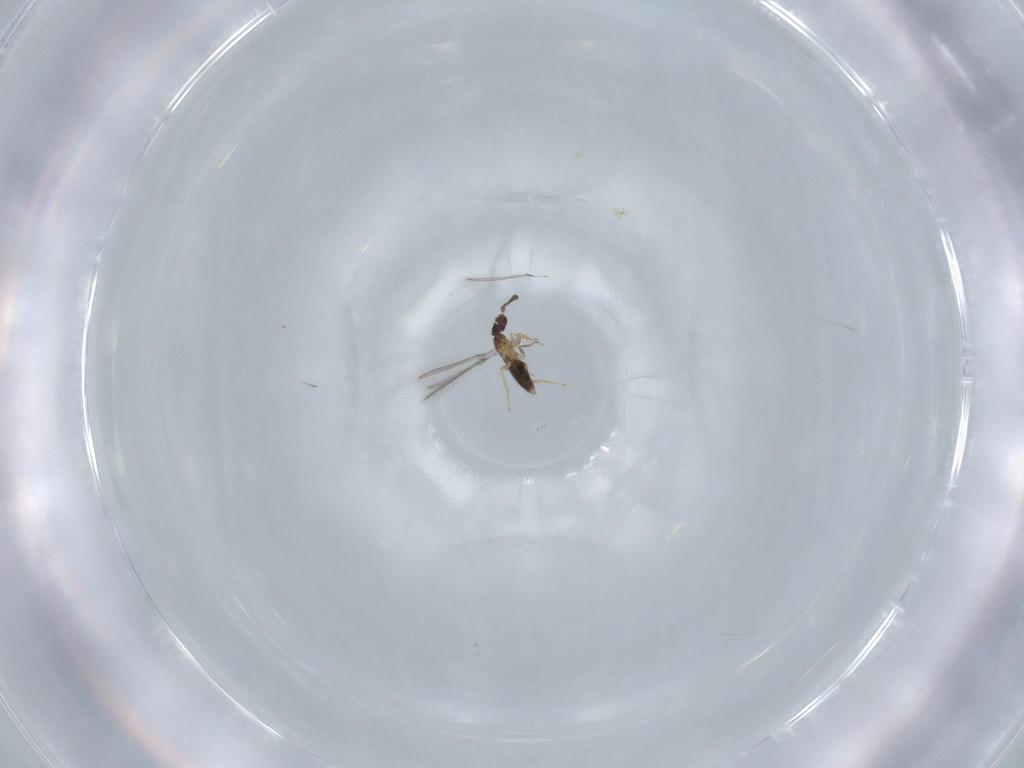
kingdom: Animalia
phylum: Arthropoda
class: Insecta
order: Hymenoptera
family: Mymaridae
